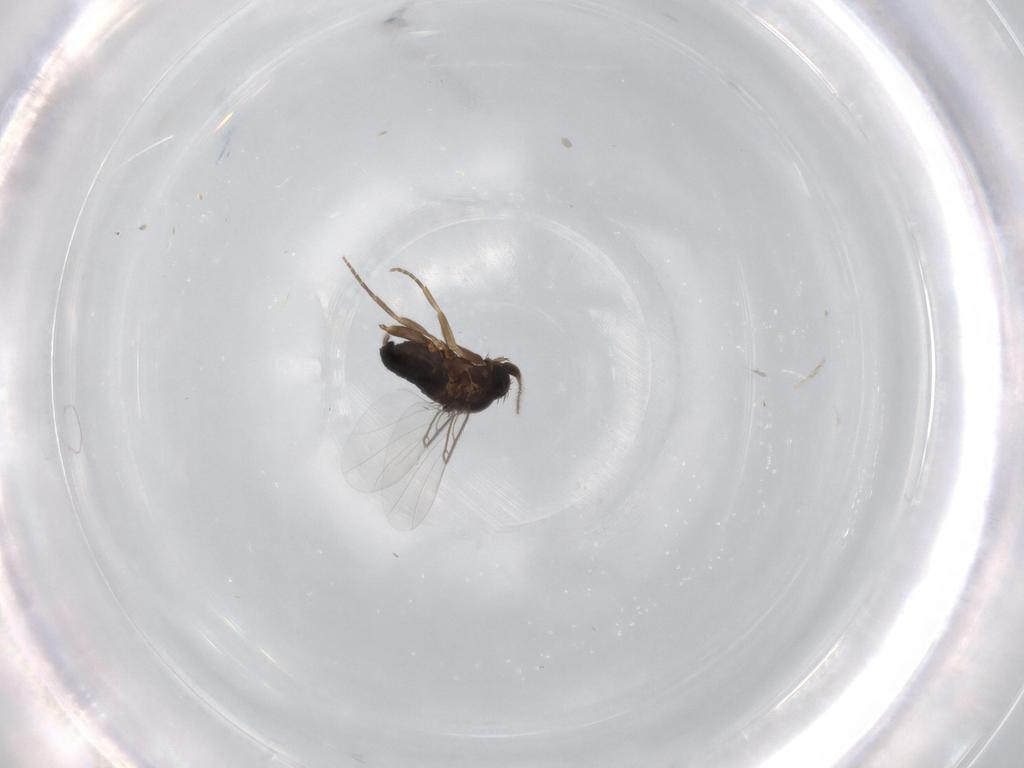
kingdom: Animalia
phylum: Arthropoda
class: Insecta
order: Diptera
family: Phoridae
